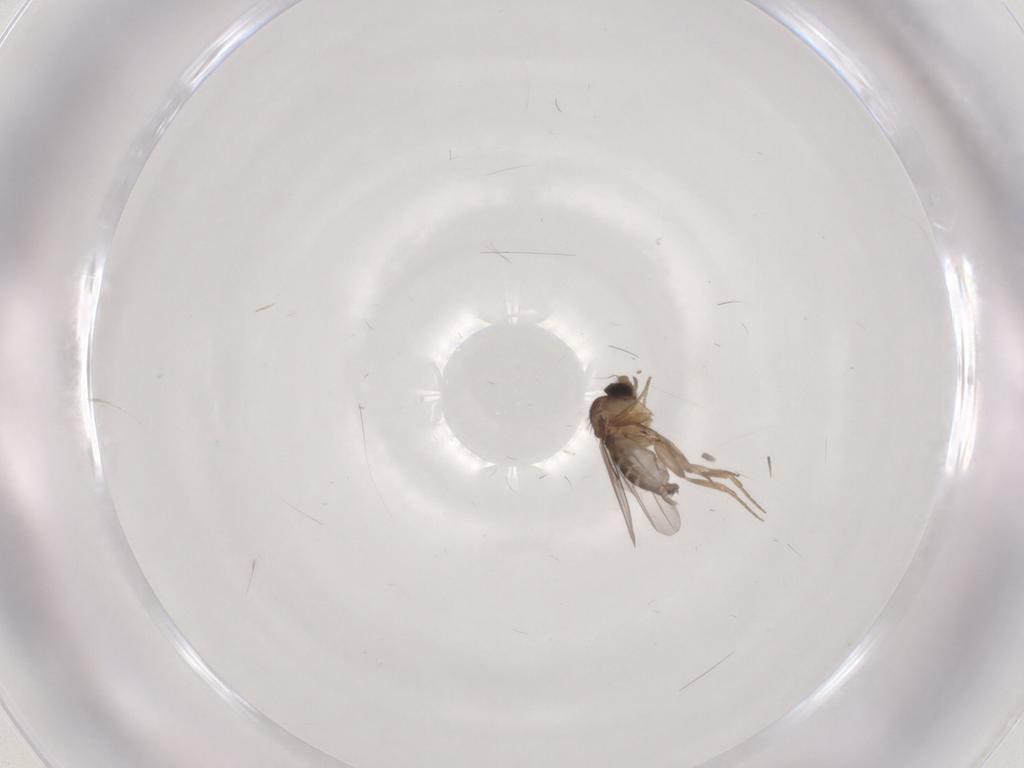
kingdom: Animalia
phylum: Arthropoda
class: Insecta
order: Diptera
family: Phoridae
